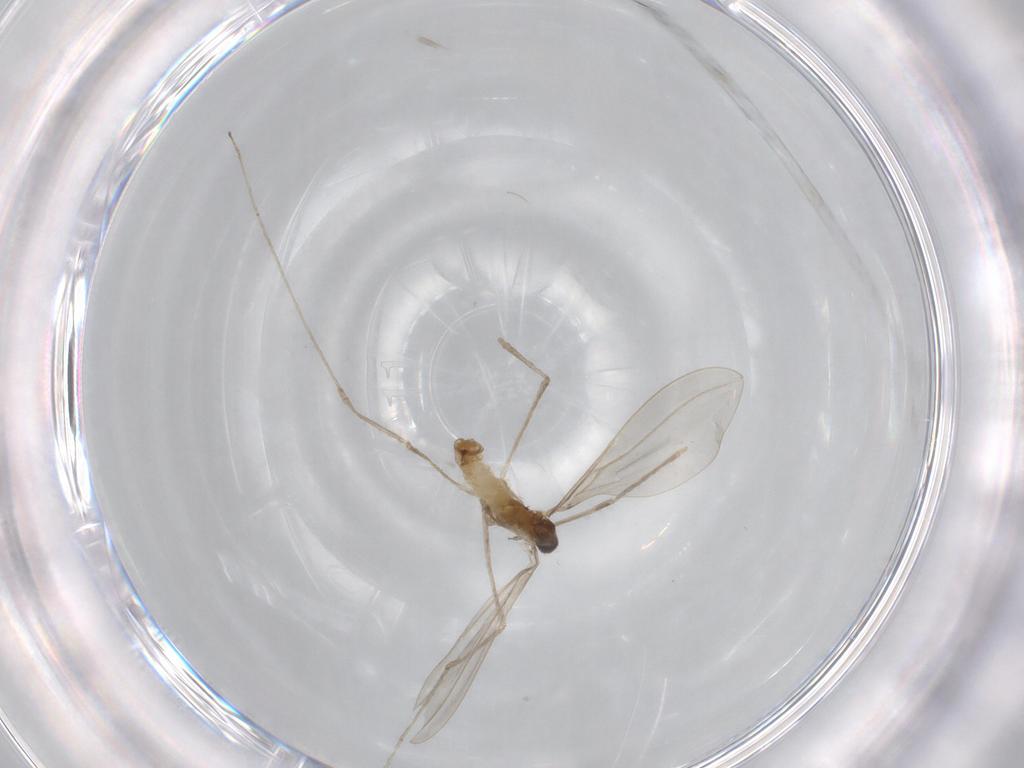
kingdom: Animalia
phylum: Arthropoda
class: Insecta
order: Diptera
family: Cecidomyiidae
